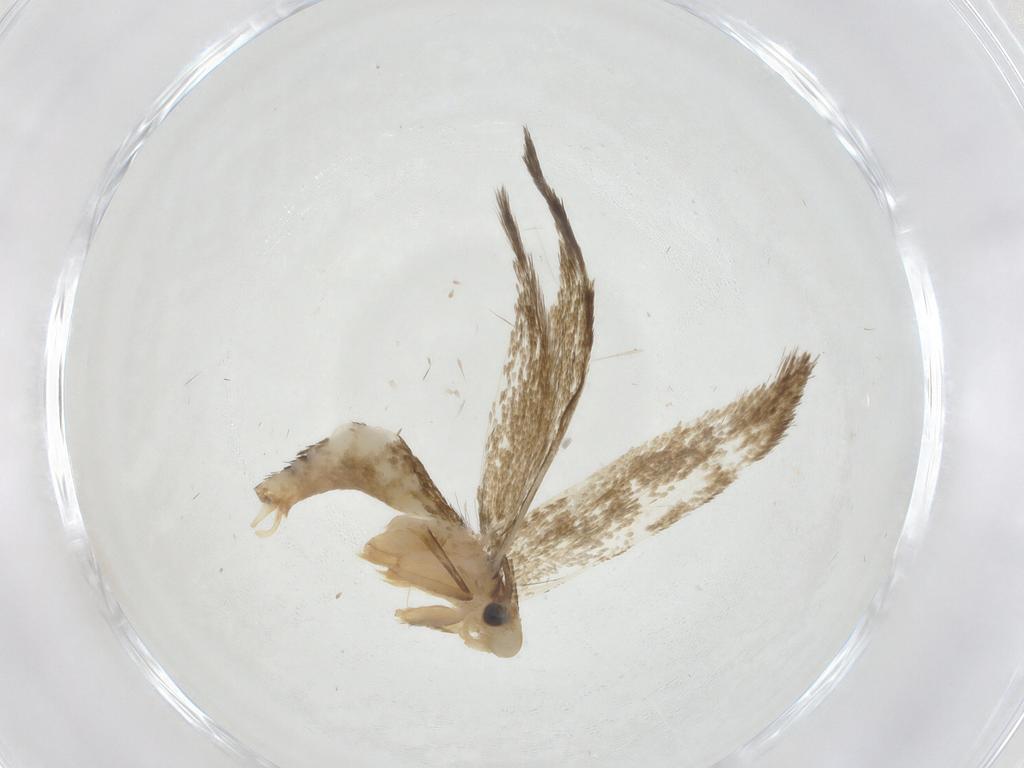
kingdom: Animalia
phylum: Arthropoda
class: Insecta
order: Lepidoptera
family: Tineidae
